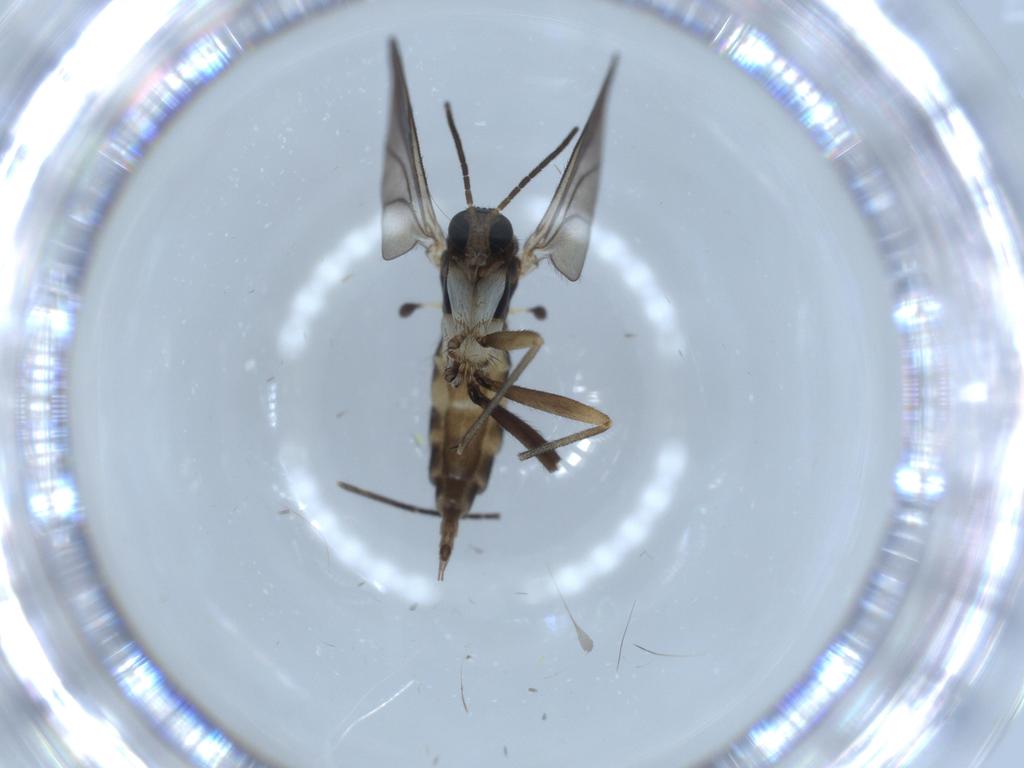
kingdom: Animalia
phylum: Arthropoda
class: Insecta
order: Diptera
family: Sciaridae
